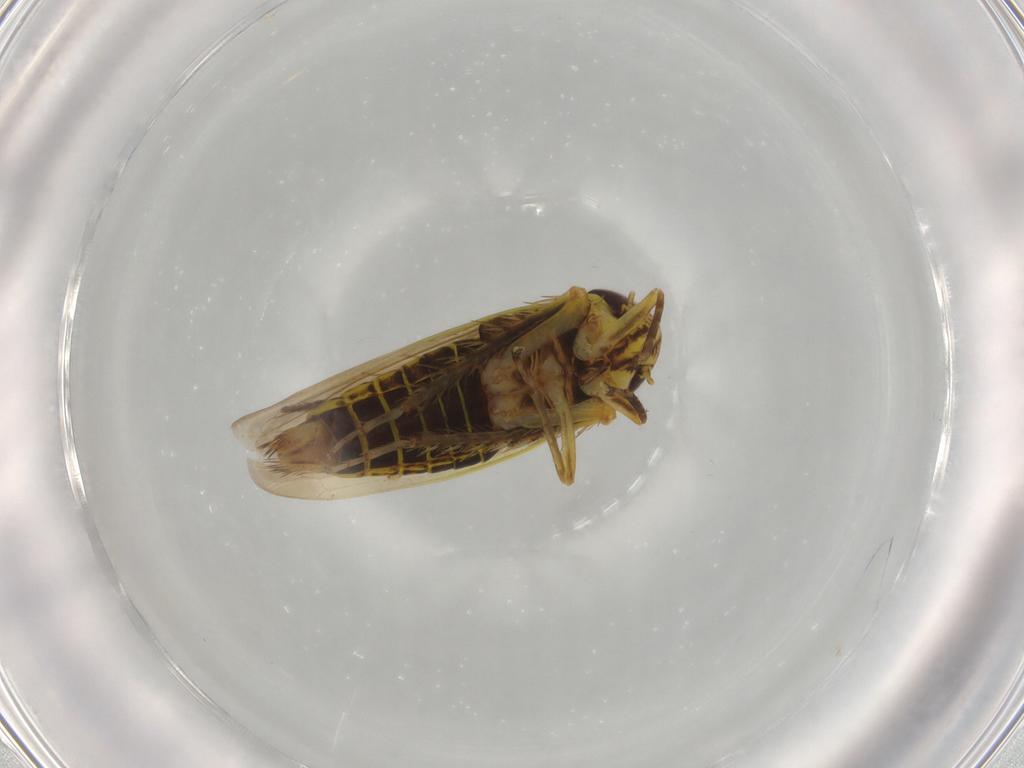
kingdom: Animalia
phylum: Arthropoda
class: Insecta
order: Hemiptera
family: Cicadellidae
